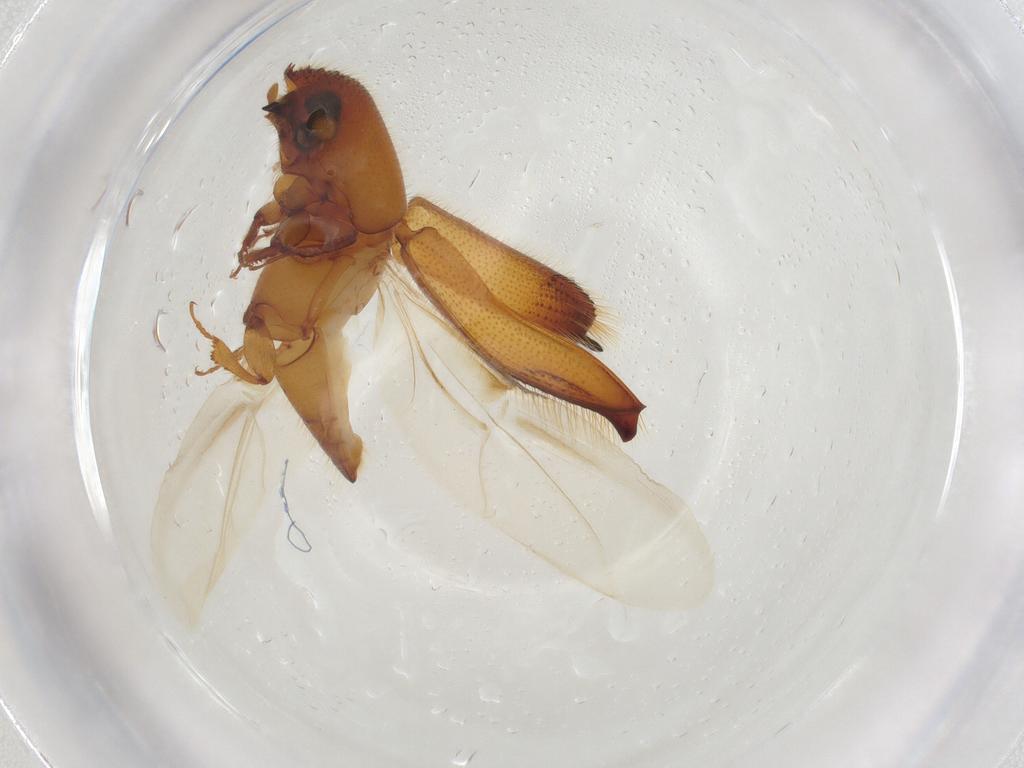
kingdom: Animalia
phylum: Arthropoda
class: Insecta
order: Coleoptera
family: Curculionidae
